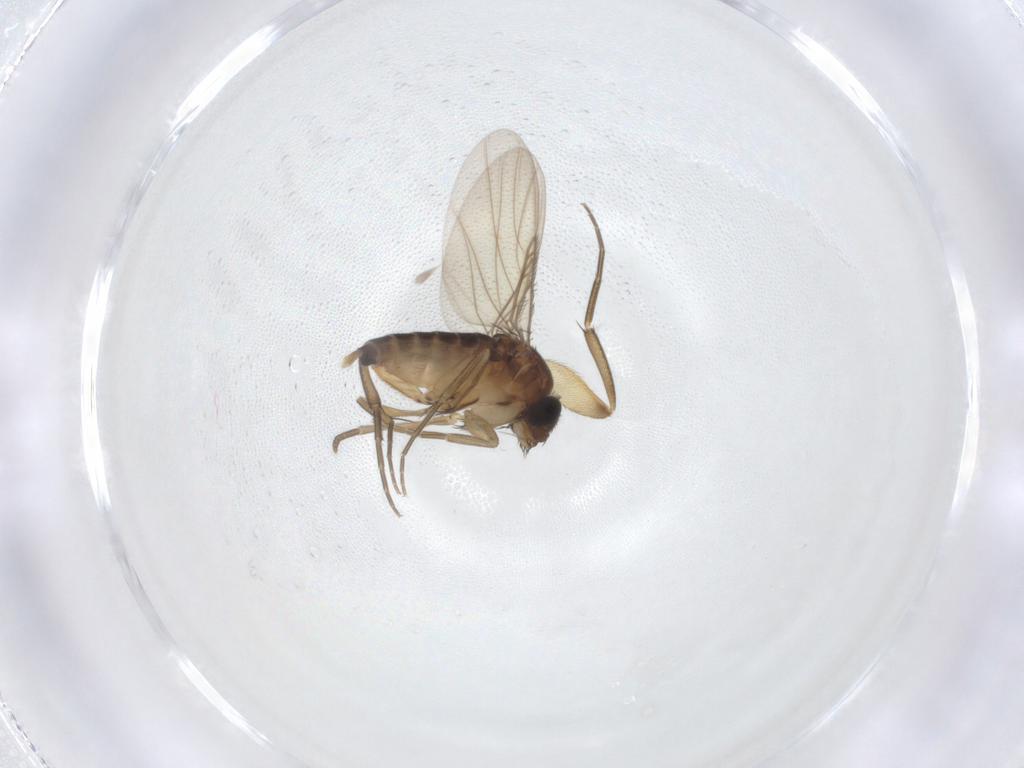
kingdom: Animalia
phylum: Arthropoda
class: Insecta
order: Diptera
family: Phoridae
